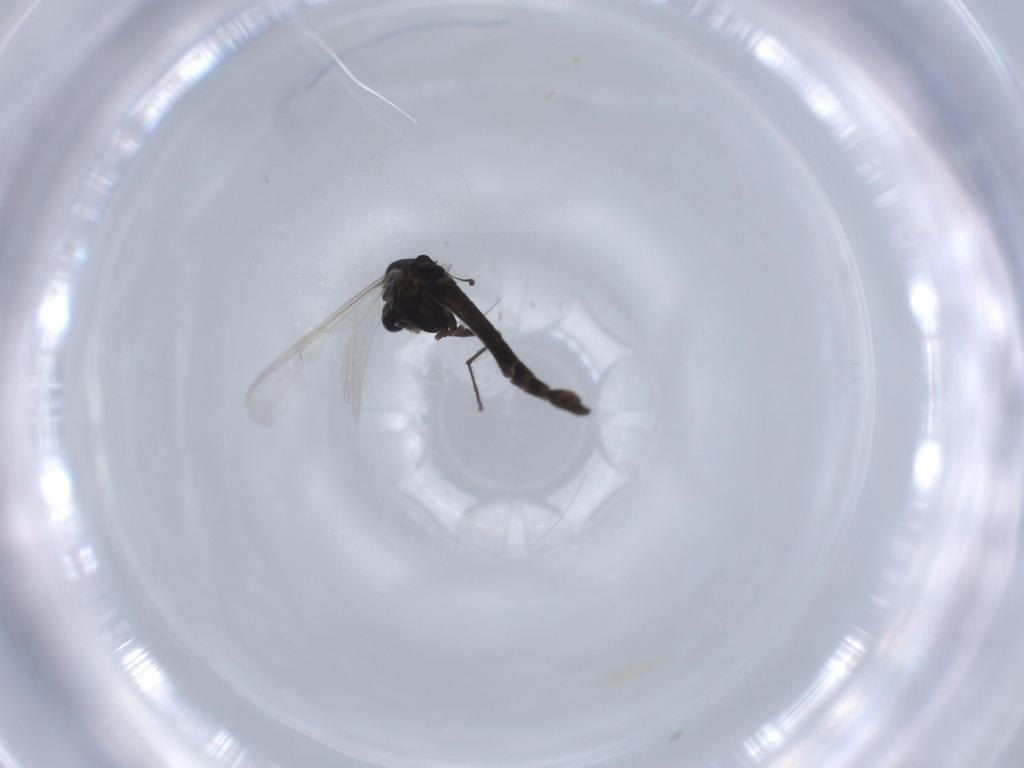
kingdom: Animalia
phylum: Arthropoda
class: Insecta
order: Diptera
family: Chironomidae
